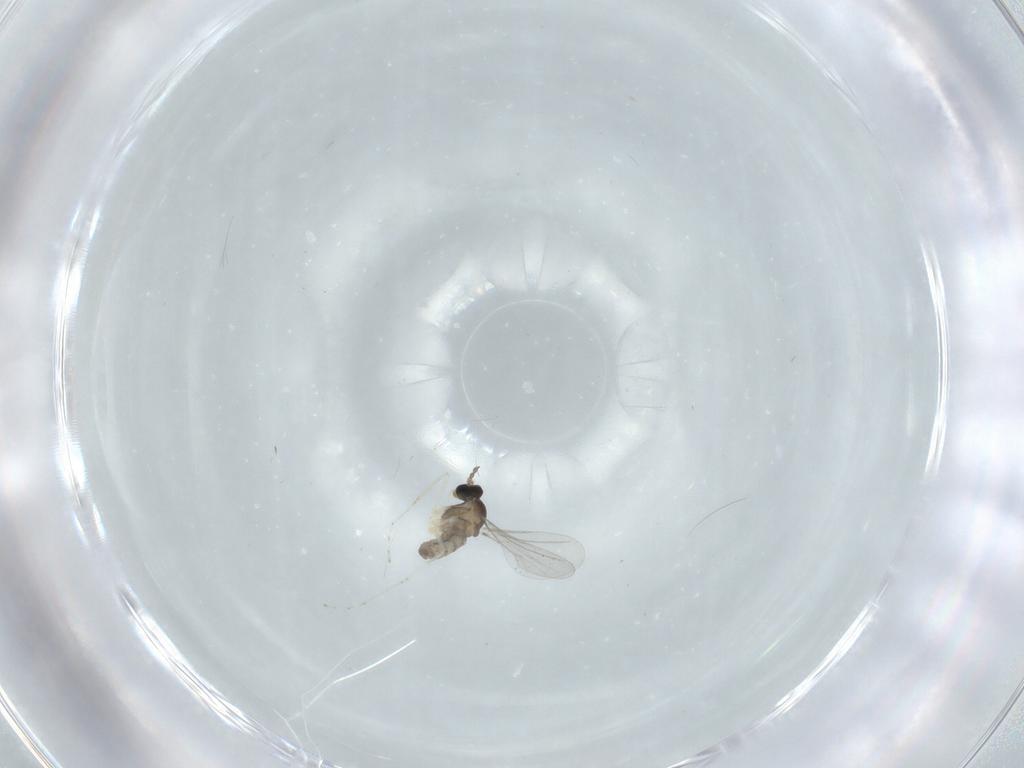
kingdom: Animalia
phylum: Arthropoda
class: Insecta
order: Diptera
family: Cecidomyiidae
